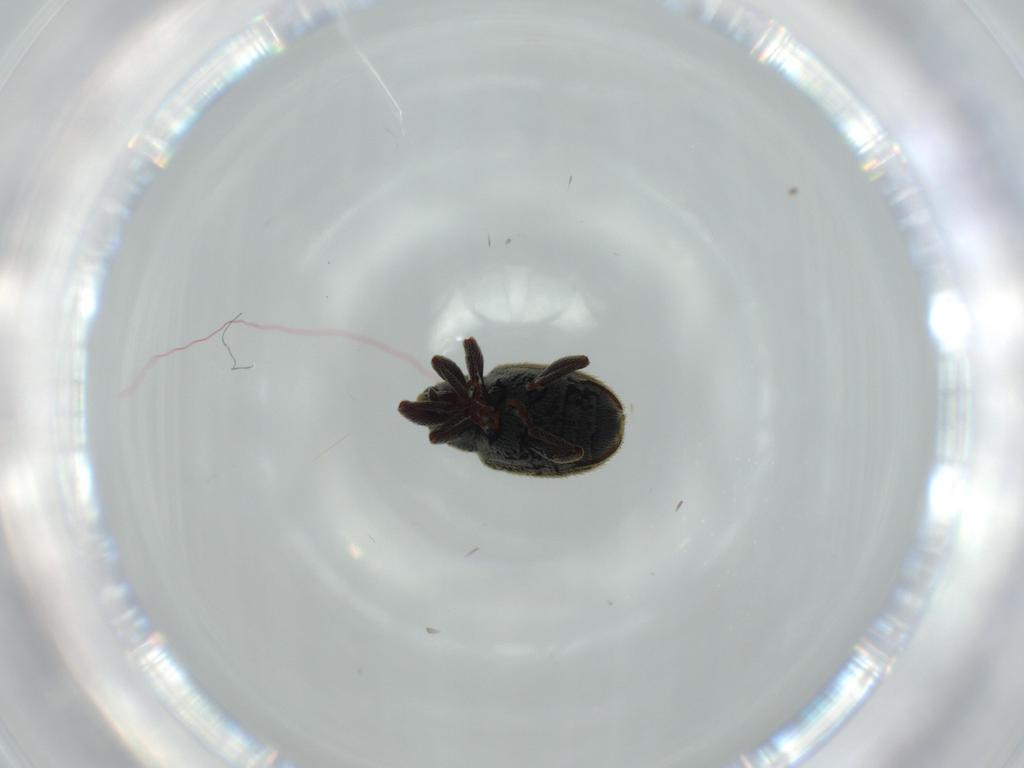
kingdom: Animalia
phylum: Arthropoda
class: Insecta
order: Coleoptera
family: Curculionidae
